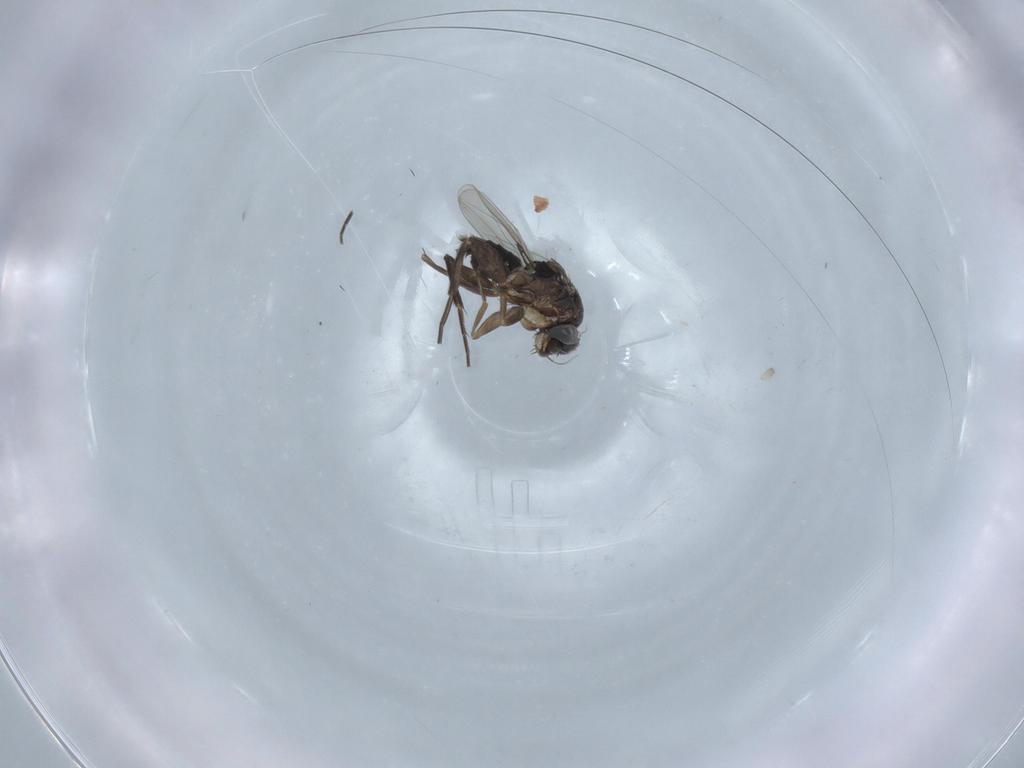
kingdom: Animalia
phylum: Arthropoda
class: Insecta
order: Diptera
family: Phoridae
